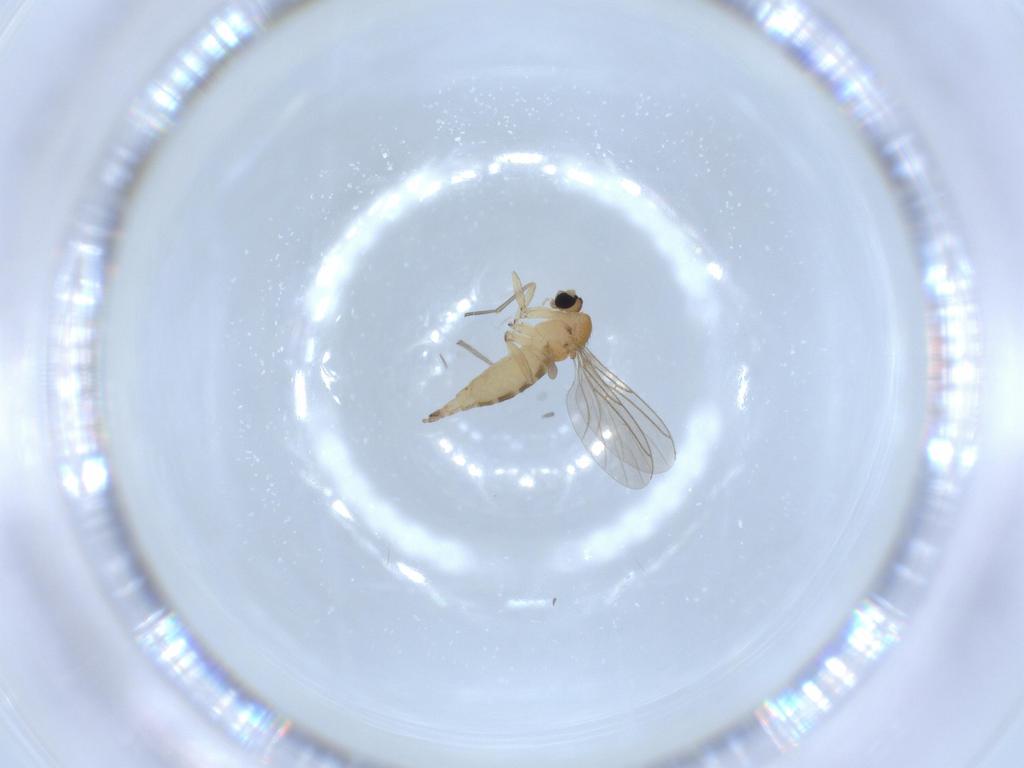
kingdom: Animalia
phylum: Arthropoda
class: Insecta
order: Diptera
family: Sciaridae
